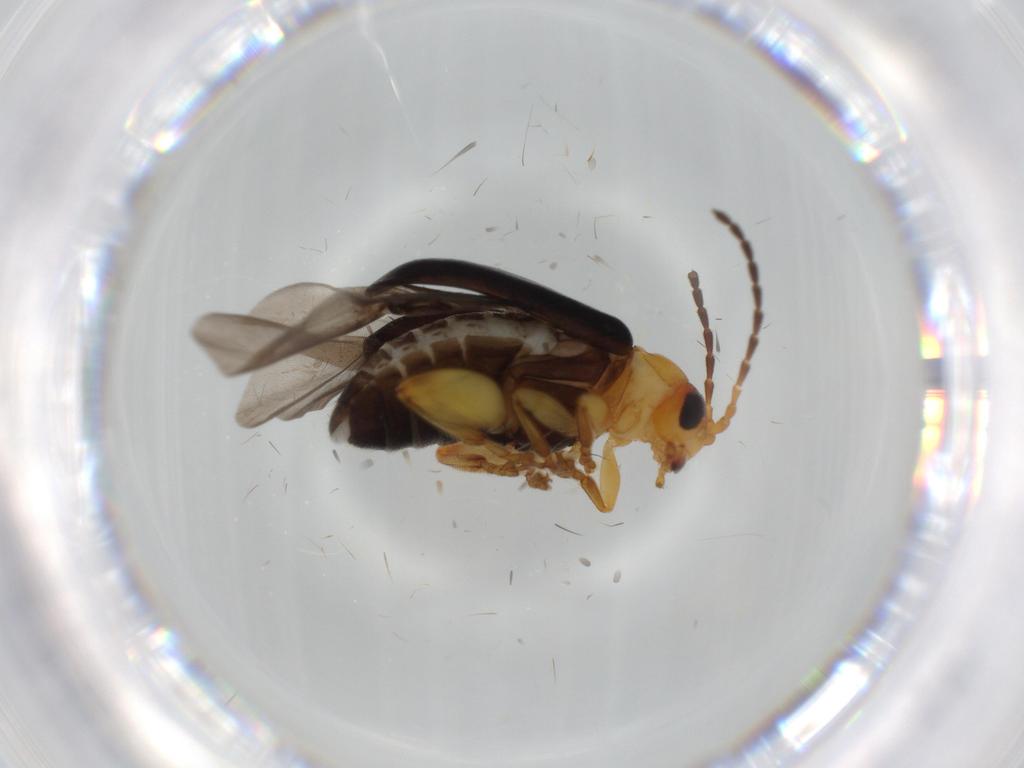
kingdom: Animalia
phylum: Arthropoda
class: Insecta
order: Coleoptera
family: Chrysomelidae
